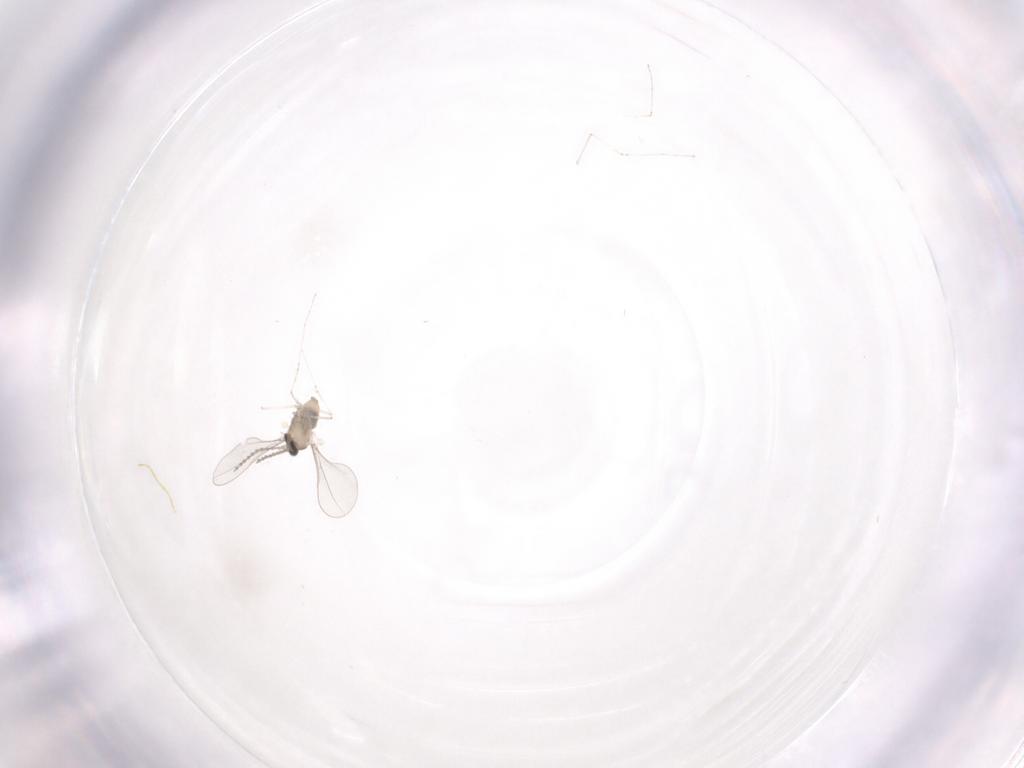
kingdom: Animalia
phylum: Arthropoda
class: Insecta
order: Diptera
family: Cecidomyiidae
